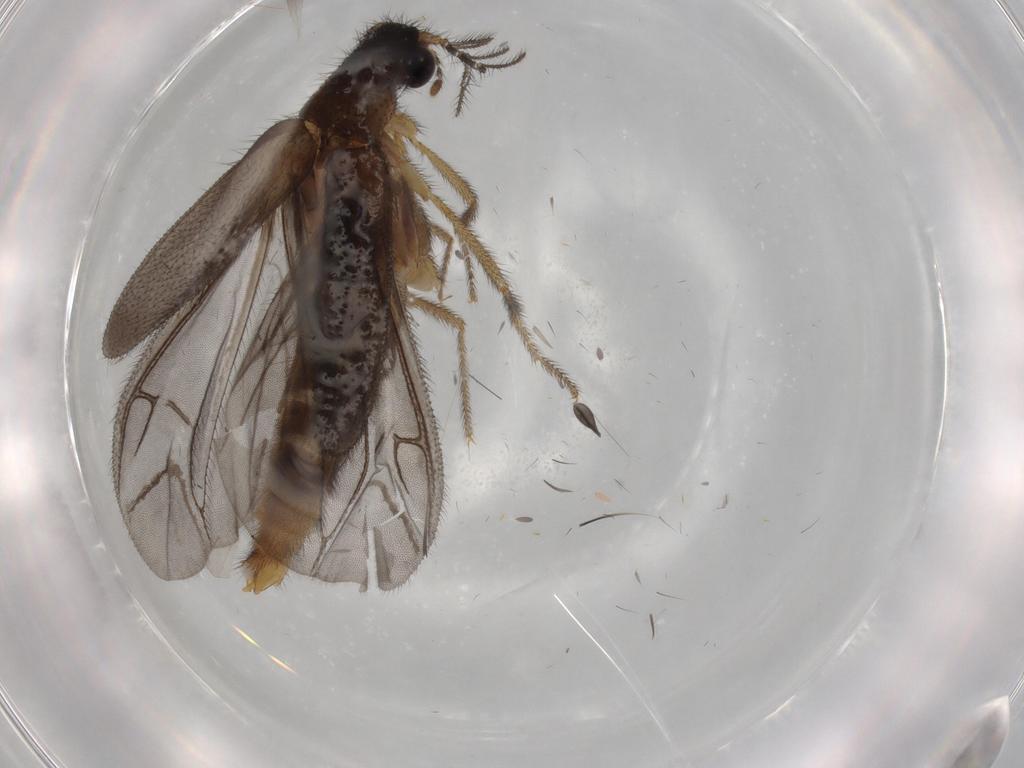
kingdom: Animalia
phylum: Arthropoda
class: Insecta
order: Coleoptera
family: Phengodidae
